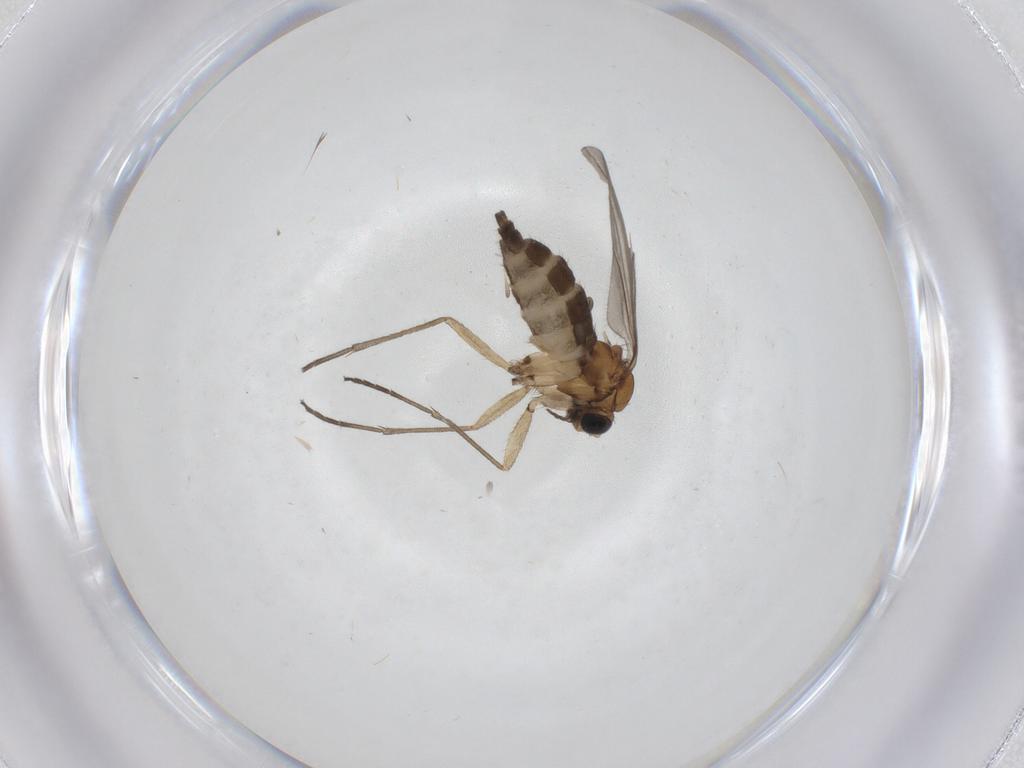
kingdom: Animalia
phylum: Arthropoda
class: Insecta
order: Diptera
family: Sciaridae
